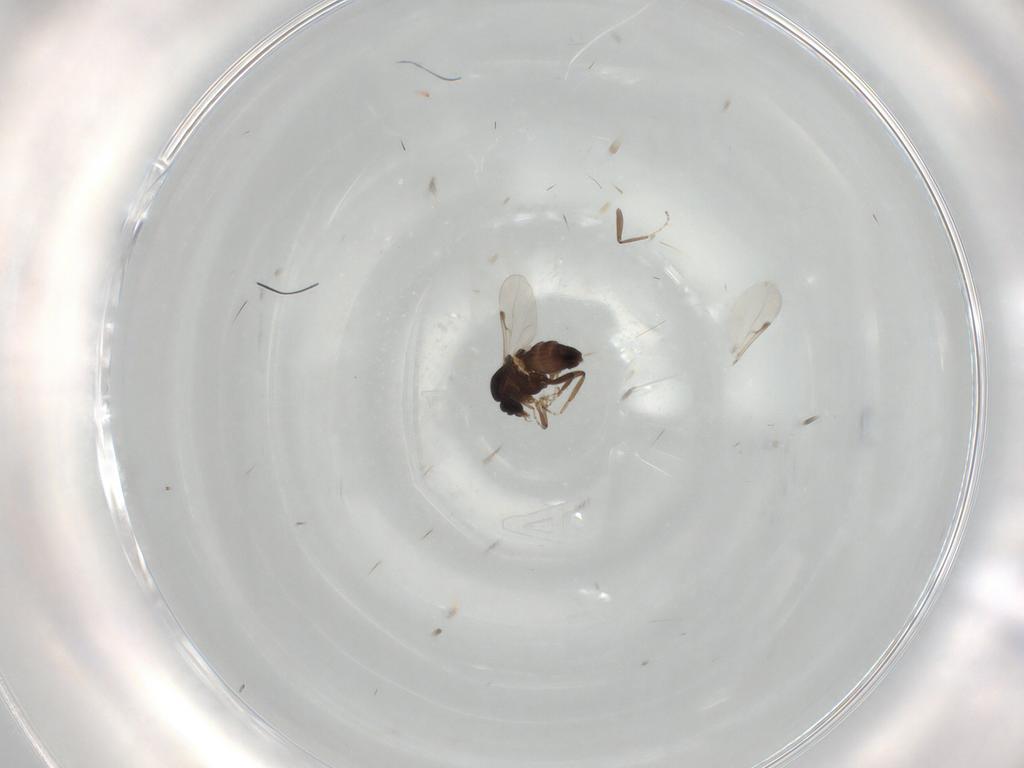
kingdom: Animalia
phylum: Arthropoda
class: Insecta
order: Diptera
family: Ceratopogonidae
